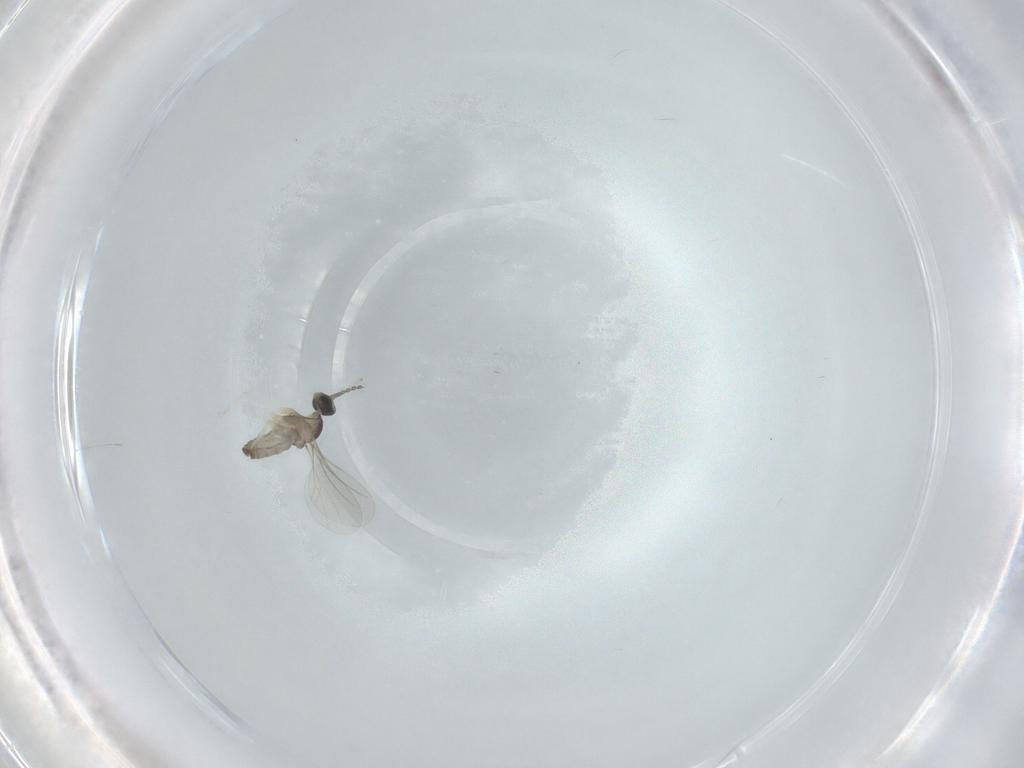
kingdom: Animalia
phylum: Arthropoda
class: Insecta
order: Diptera
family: Cecidomyiidae
